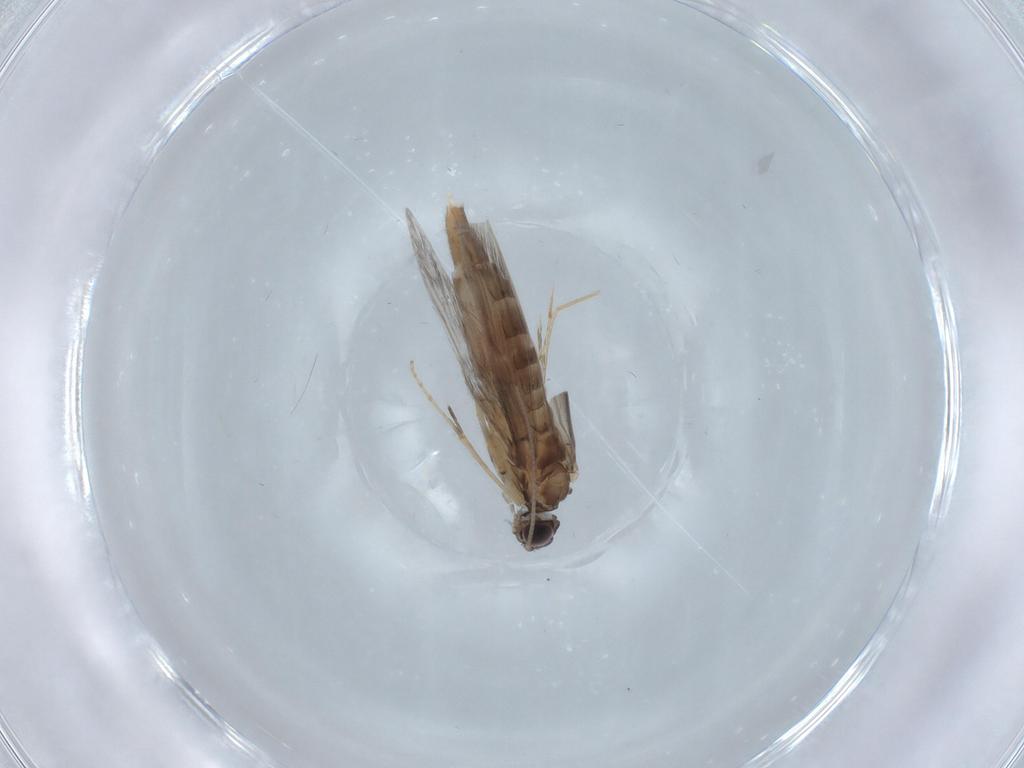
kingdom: Animalia
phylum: Arthropoda
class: Insecta
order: Trichoptera
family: Hydroptilidae
